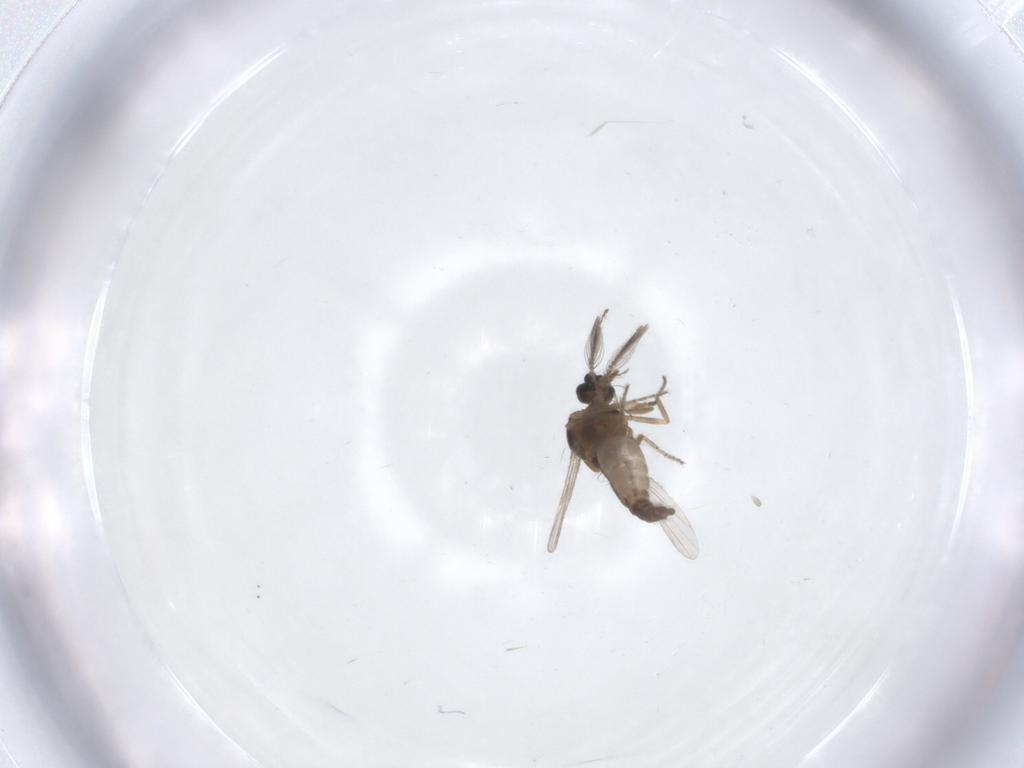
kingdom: Animalia
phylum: Arthropoda
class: Insecta
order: Diptera
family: Ceratopogonidae
